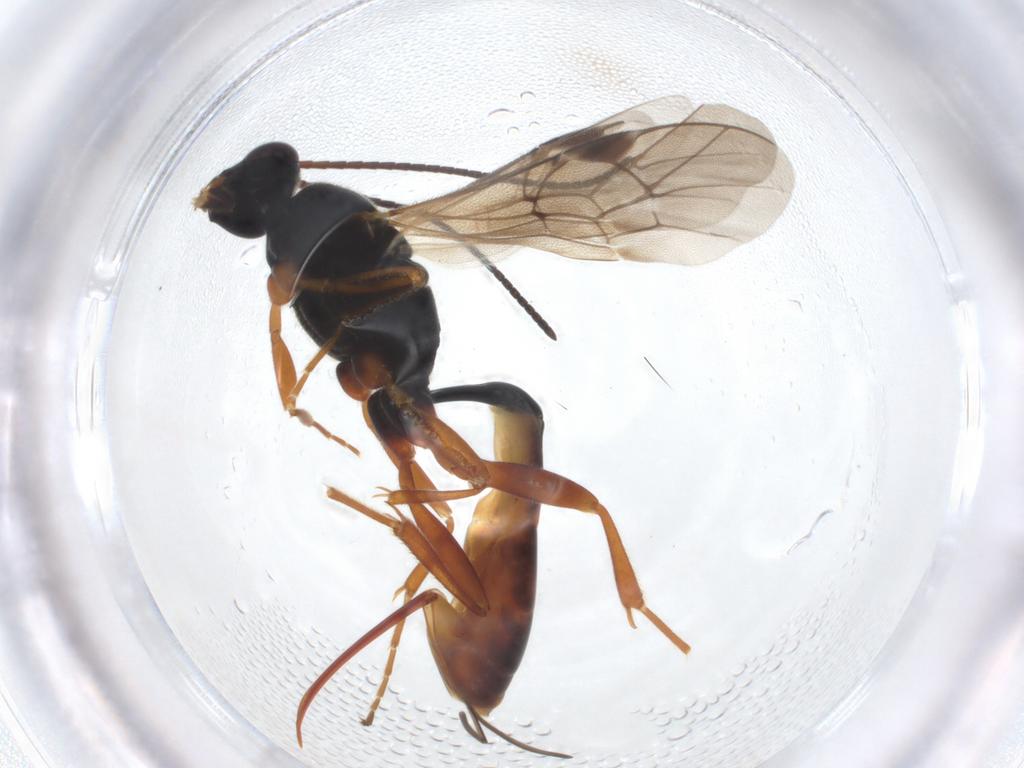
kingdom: Animalia
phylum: Arthropoda
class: Insecta
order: Hymenoptera
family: Ichneumonidae
